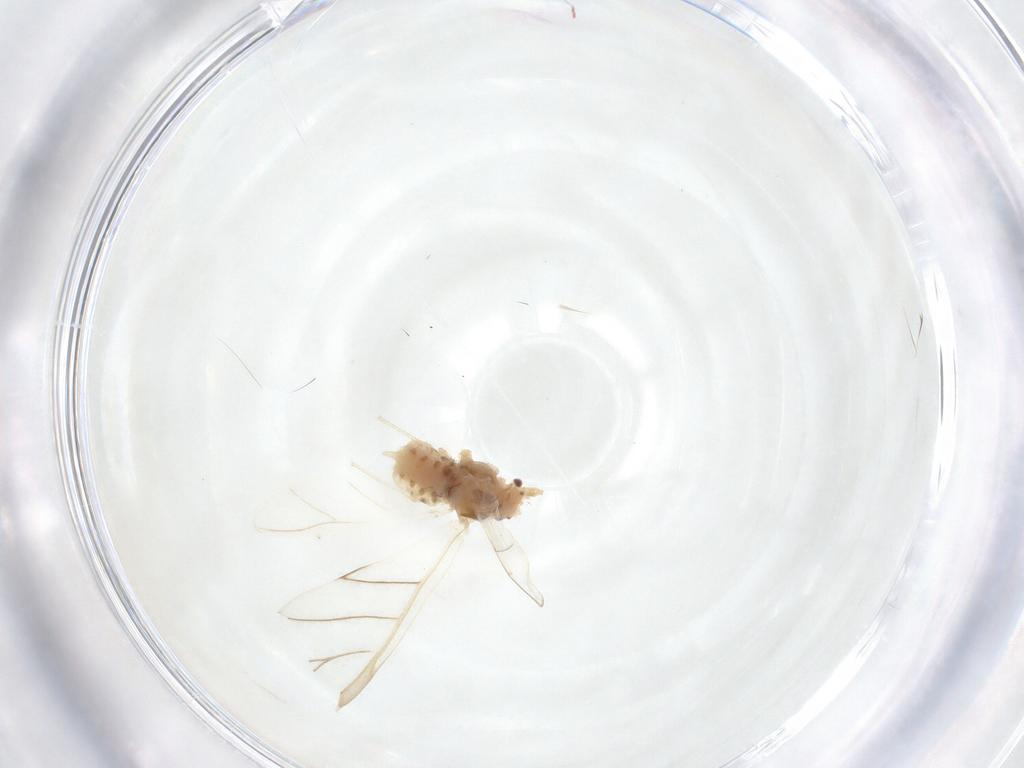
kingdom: Animalia
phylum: Arthropoda
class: Insecta
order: Hemiptera
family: Aphididae
